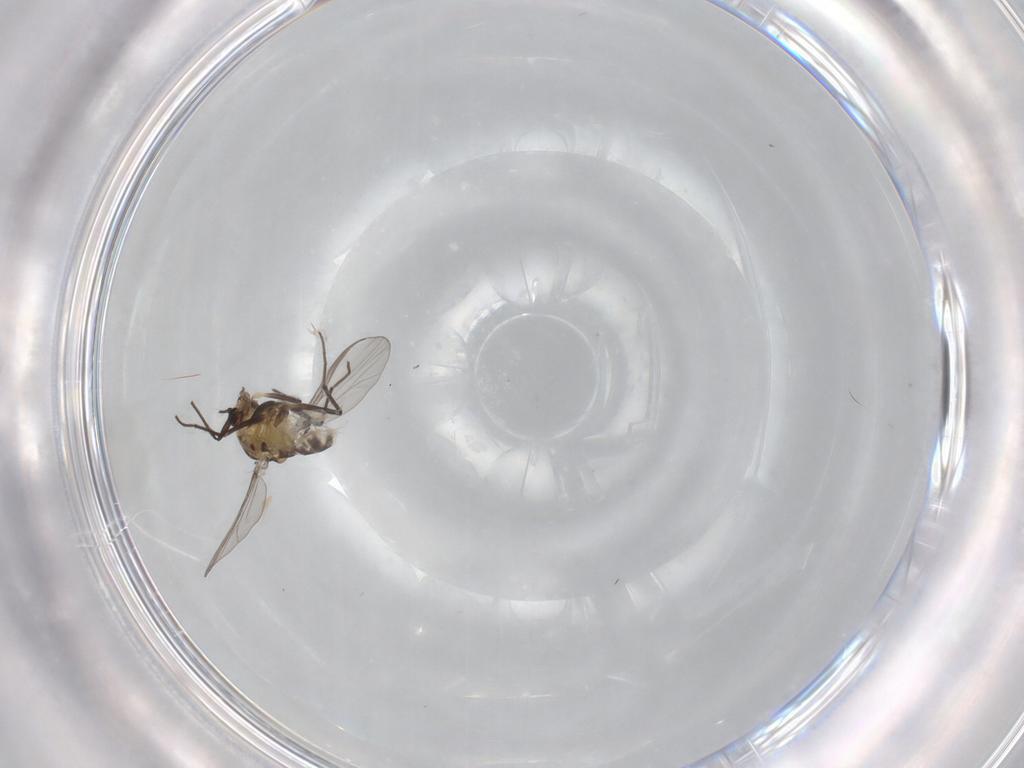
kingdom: Animalia
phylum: Arthropoda
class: Insecta
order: Diptera
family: Chironomidae
